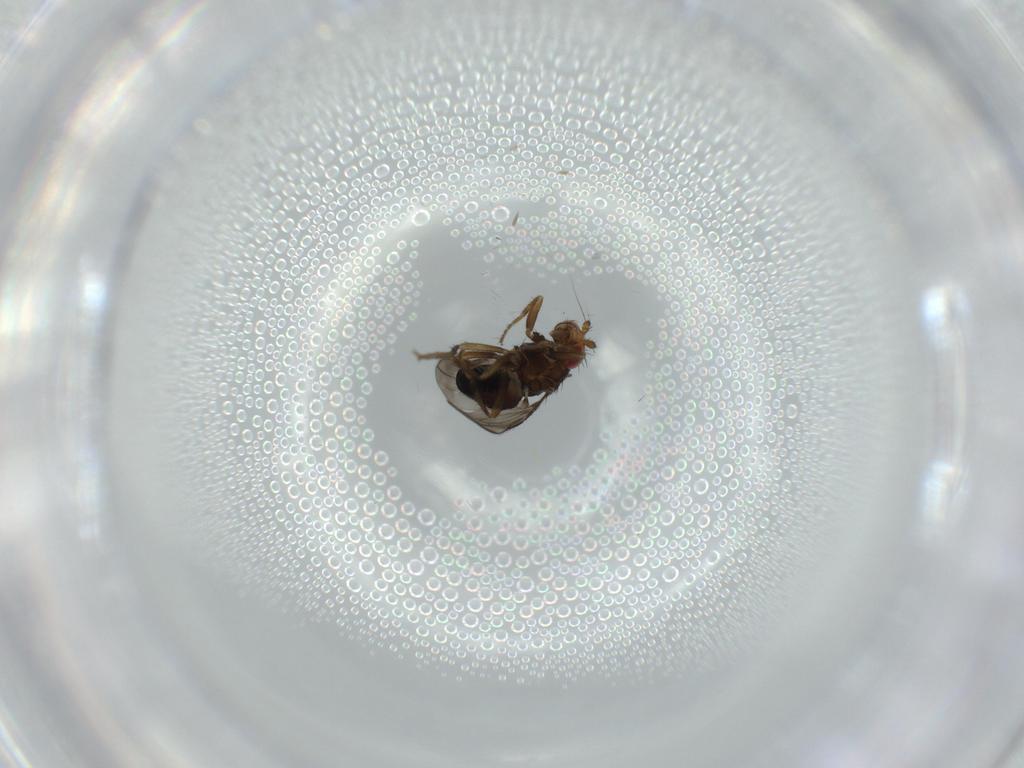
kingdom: Animalia
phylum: Arthropoda
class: Insecta
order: Diptera
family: Sphaeroceridae
